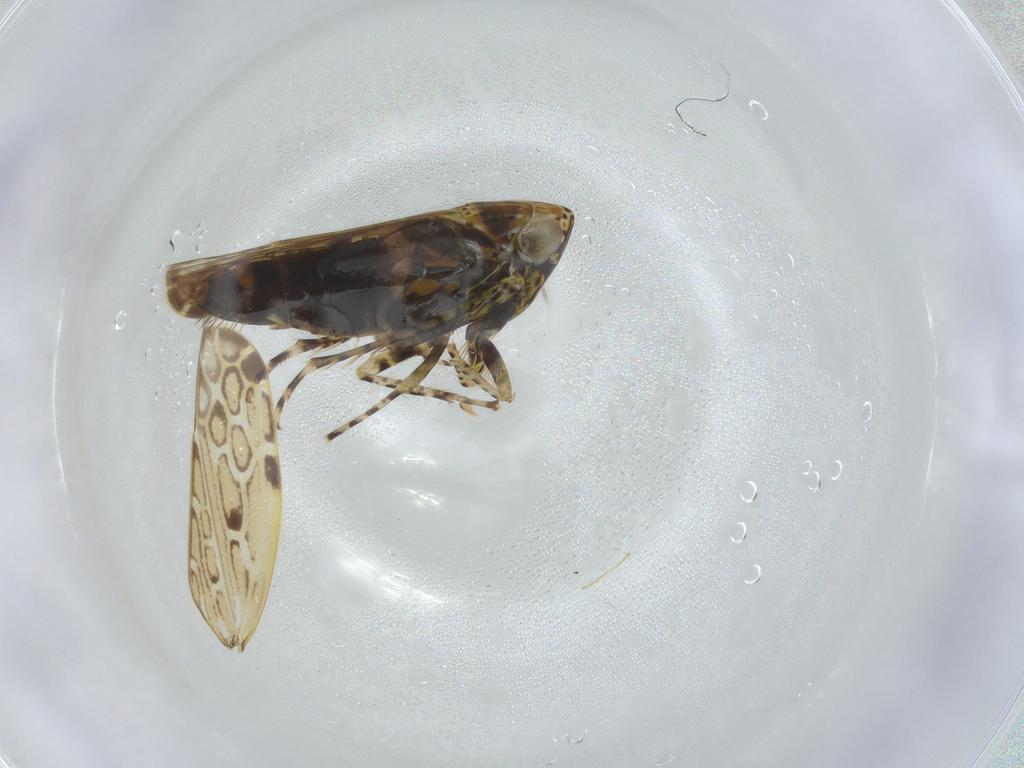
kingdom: Animalia
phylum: Arthropoda
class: Insecta
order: Hemiptera
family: Cicadellidae
